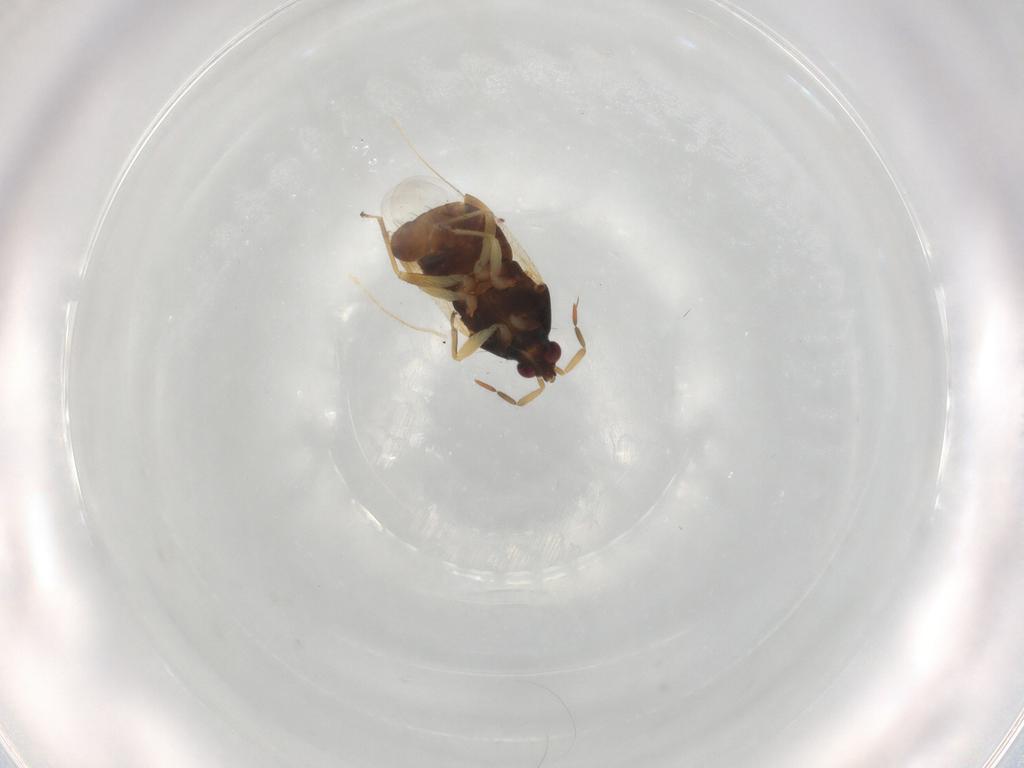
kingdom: Animalia
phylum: Arthropoda
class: Insecta
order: Hemiptera
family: Anthocoridae
